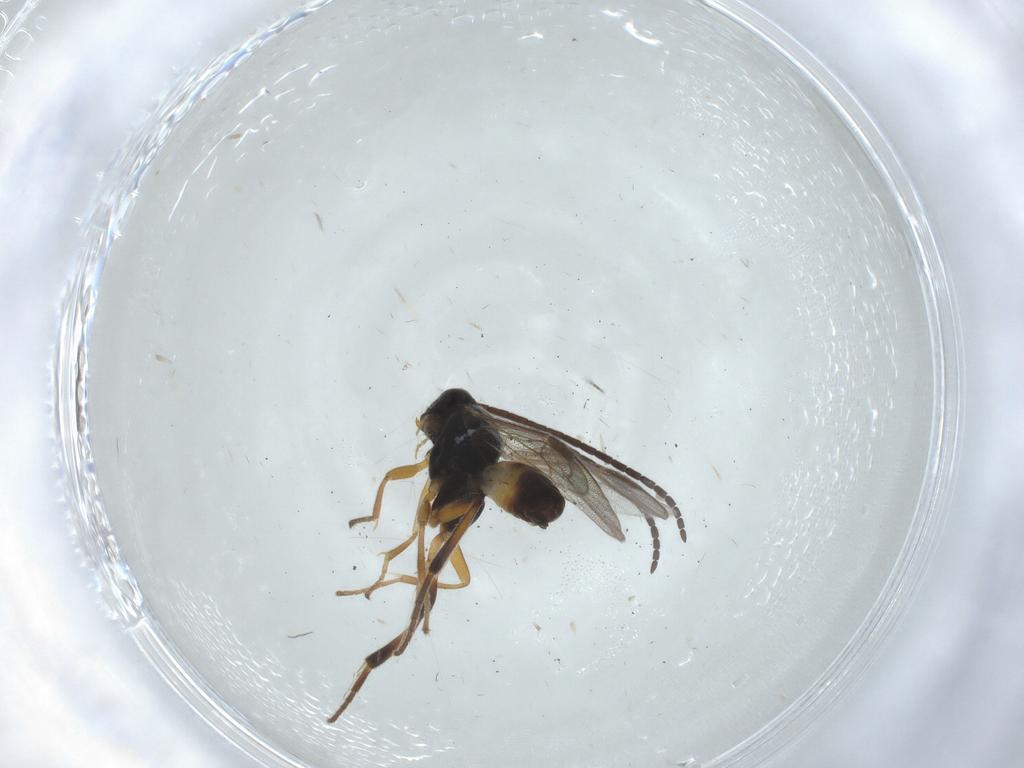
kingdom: Animalia
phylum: Arthropoda
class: Insecta
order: Hymenoptera
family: Braconidae
